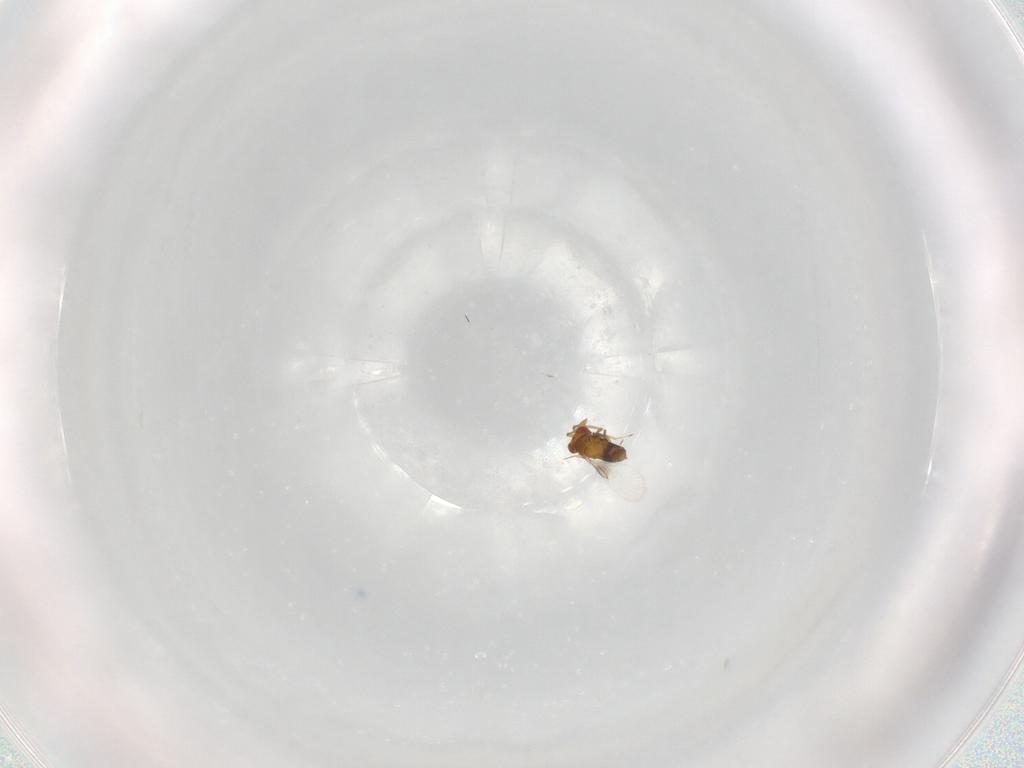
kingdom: Animalia
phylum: Arthropoda
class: Insecta
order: Hymenoptera
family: Trichogrammatidae
